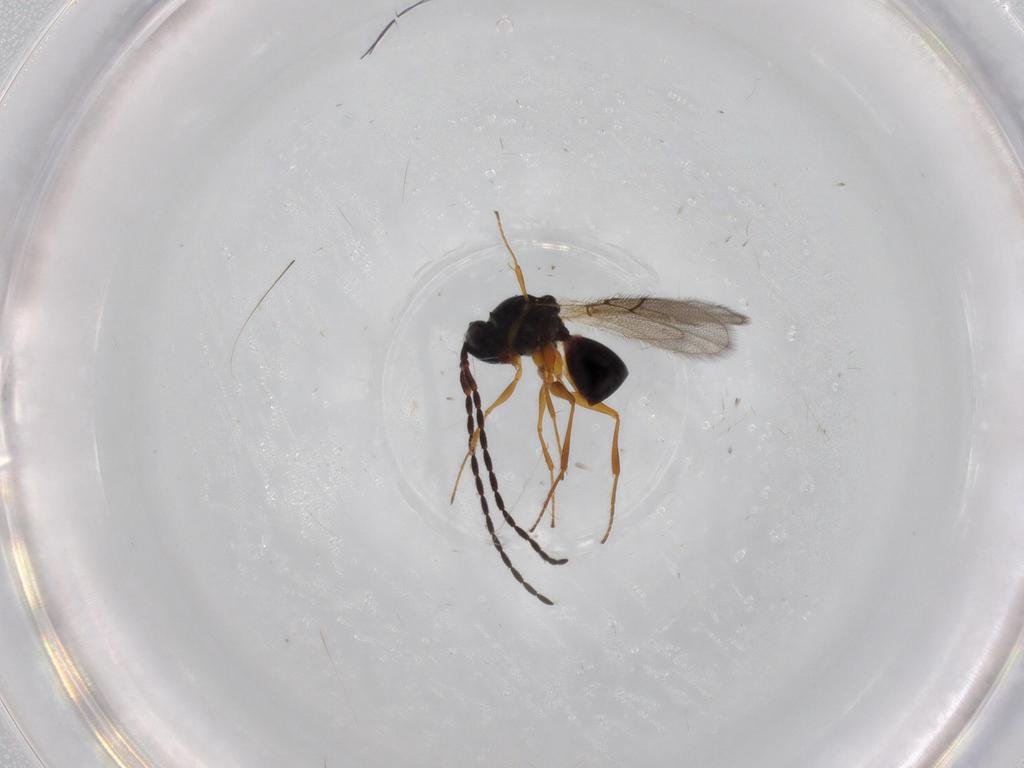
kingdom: Animalia
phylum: Arthropoda
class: Insecta
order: Hymenoptera
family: Figitidae
